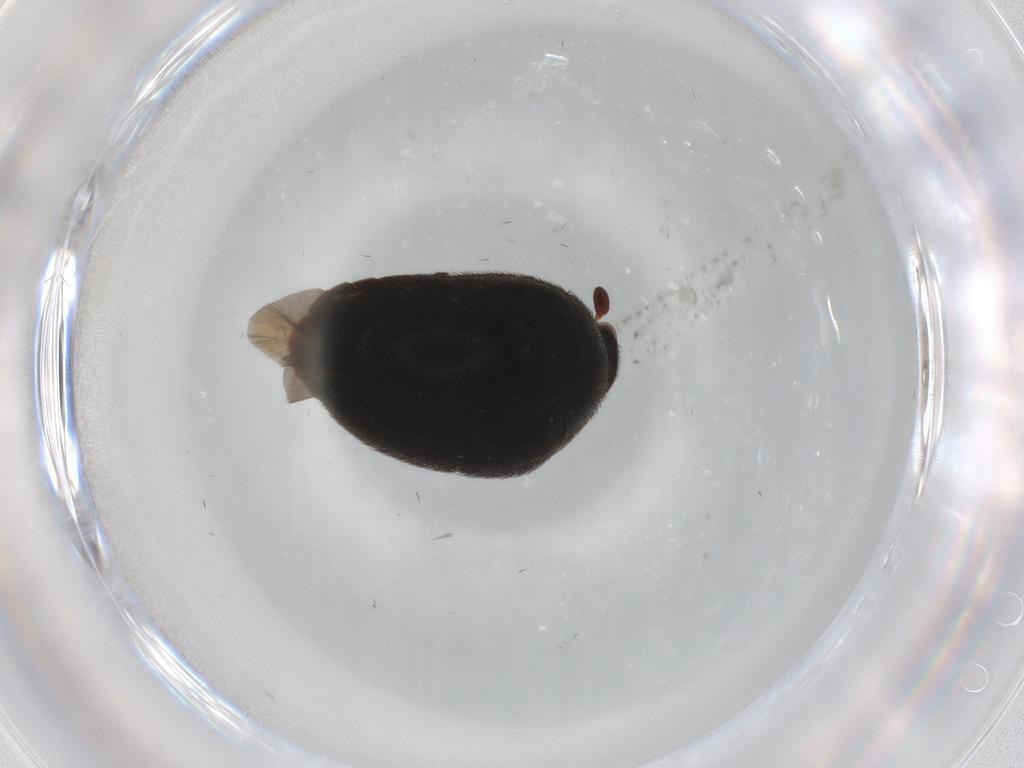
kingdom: Animalia
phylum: Arthropoda
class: Insecta
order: Coleoptera
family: Dermestidae
